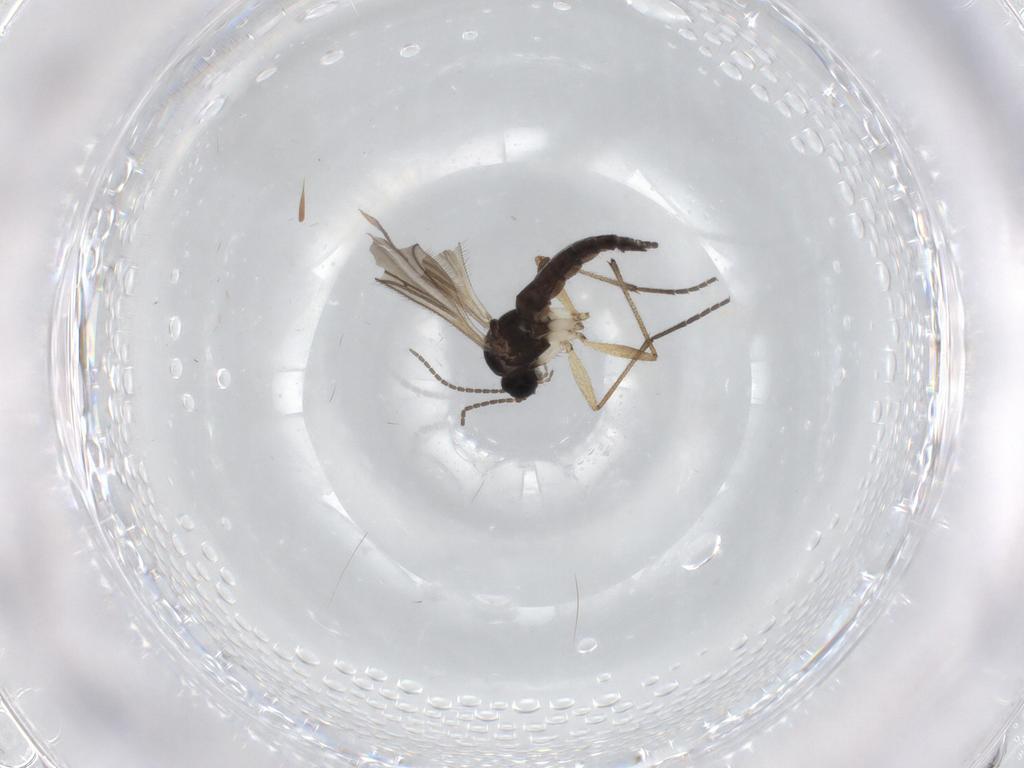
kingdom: Animalia
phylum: Arthropoda
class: Insecta
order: Diptera
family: Sciaridae
